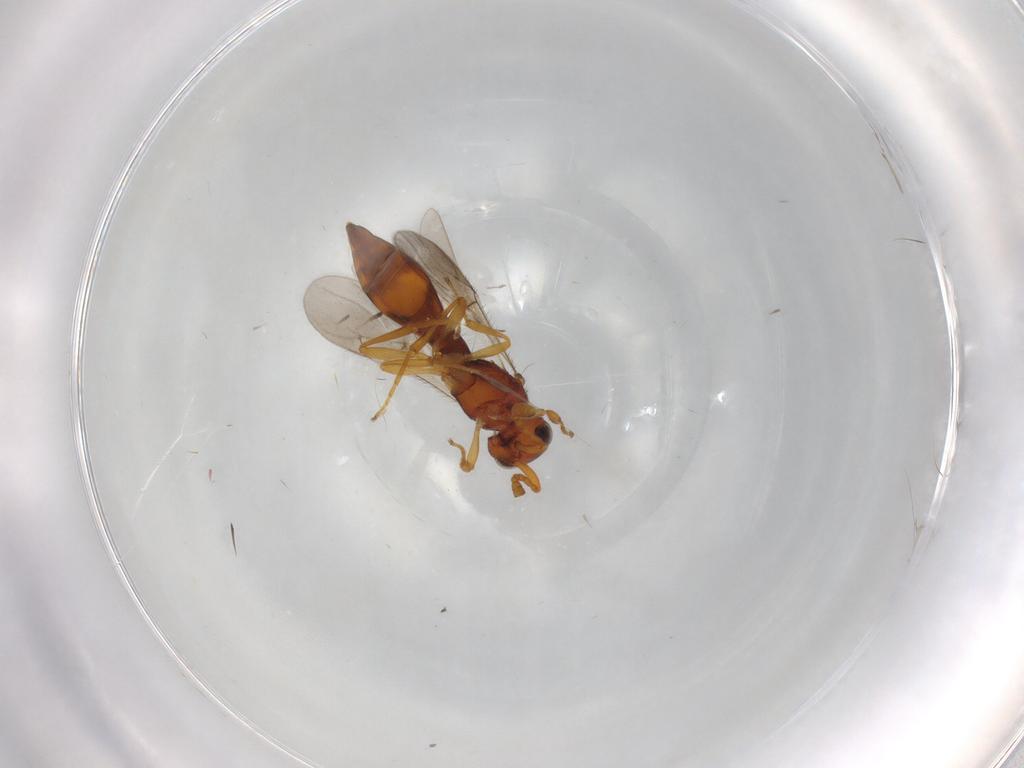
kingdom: Animalia
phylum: Arthropoda
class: Insecta
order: Hymenoptera
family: Scelionidae
